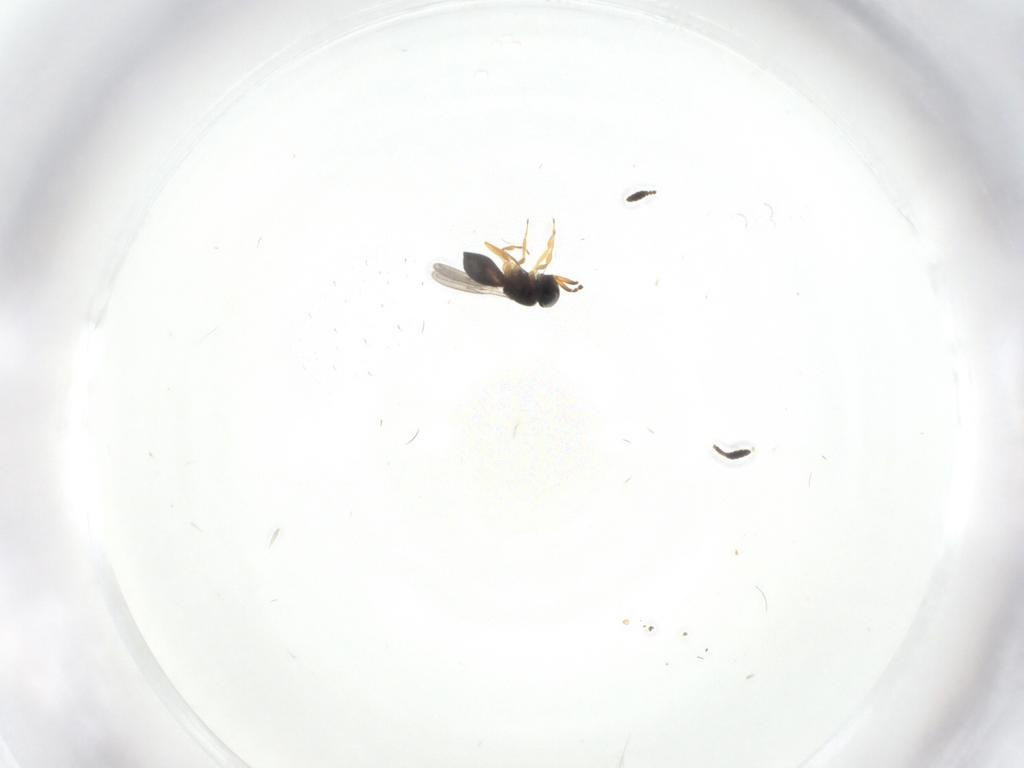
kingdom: Animalia
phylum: Arthropoda
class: Insecta
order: Hymenoptera
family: Scelionidae
